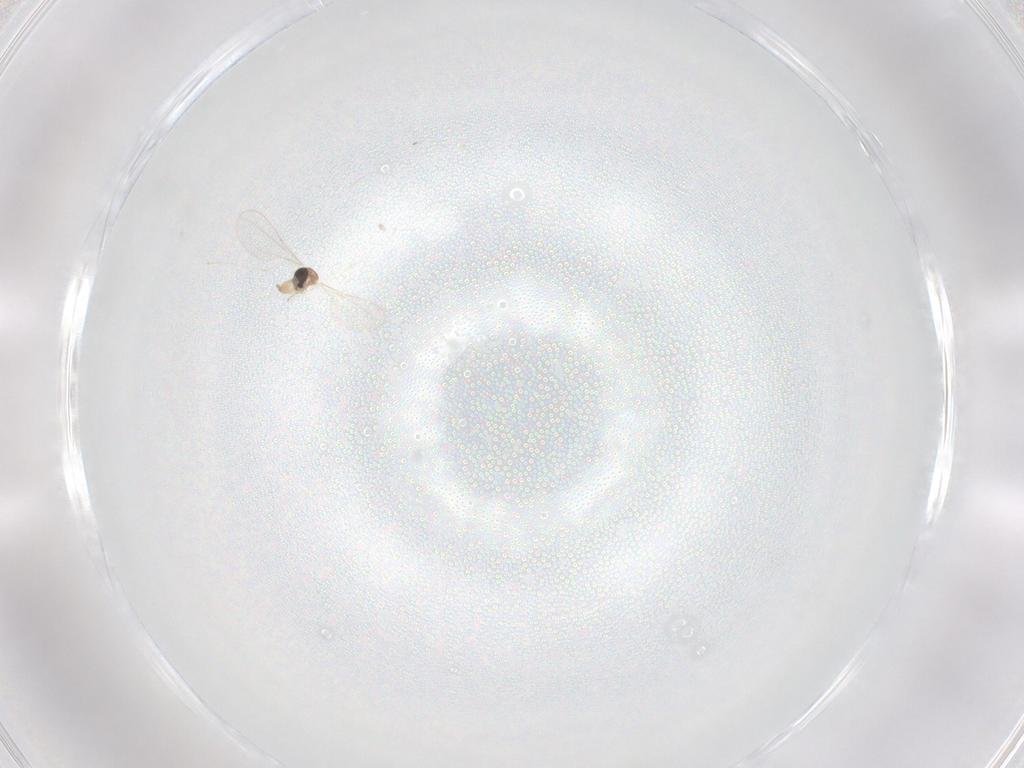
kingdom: Animalia
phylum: Arthropoda
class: Insecta
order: Diptera
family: Cecidomyiidae
